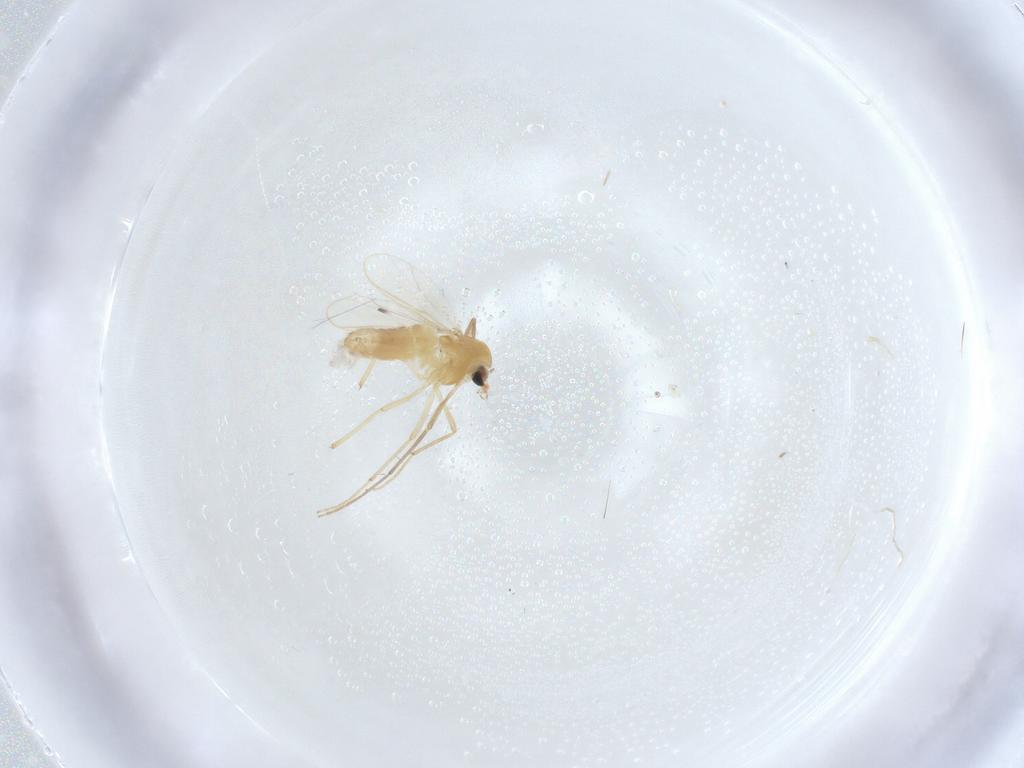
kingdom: Animalia
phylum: Arthropoda
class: Insecta
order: Diptera
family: Chironomidae
